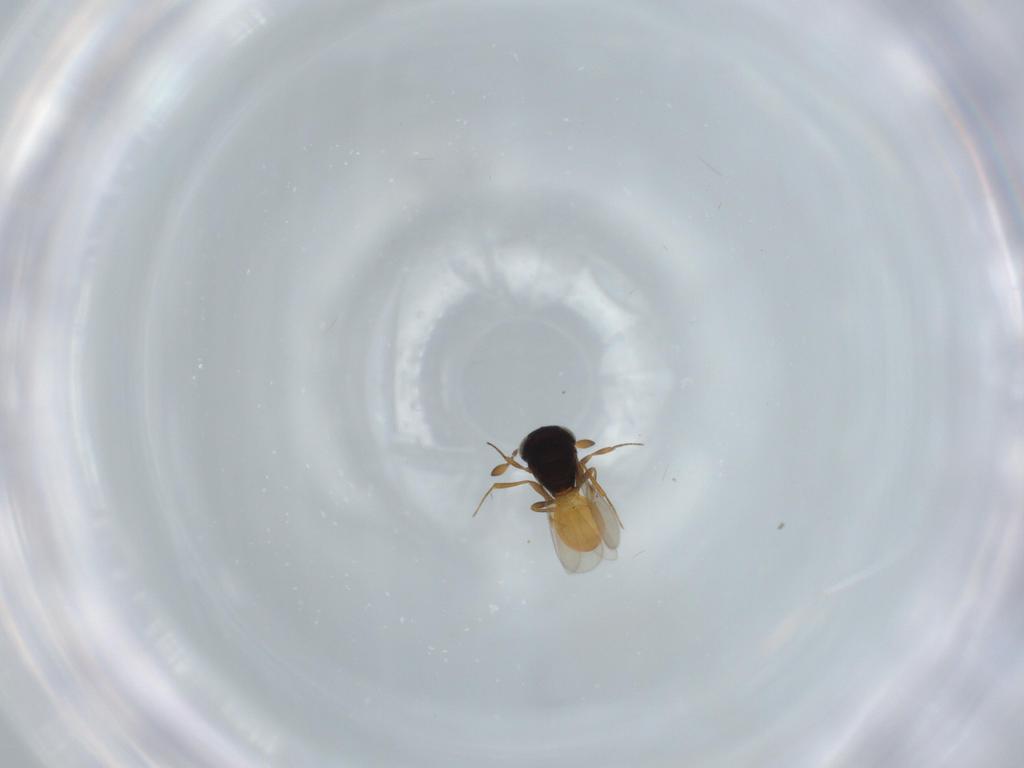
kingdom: Animalia
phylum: Arthropoda
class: Insecta
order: Hymenoptera
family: Scelionidae
